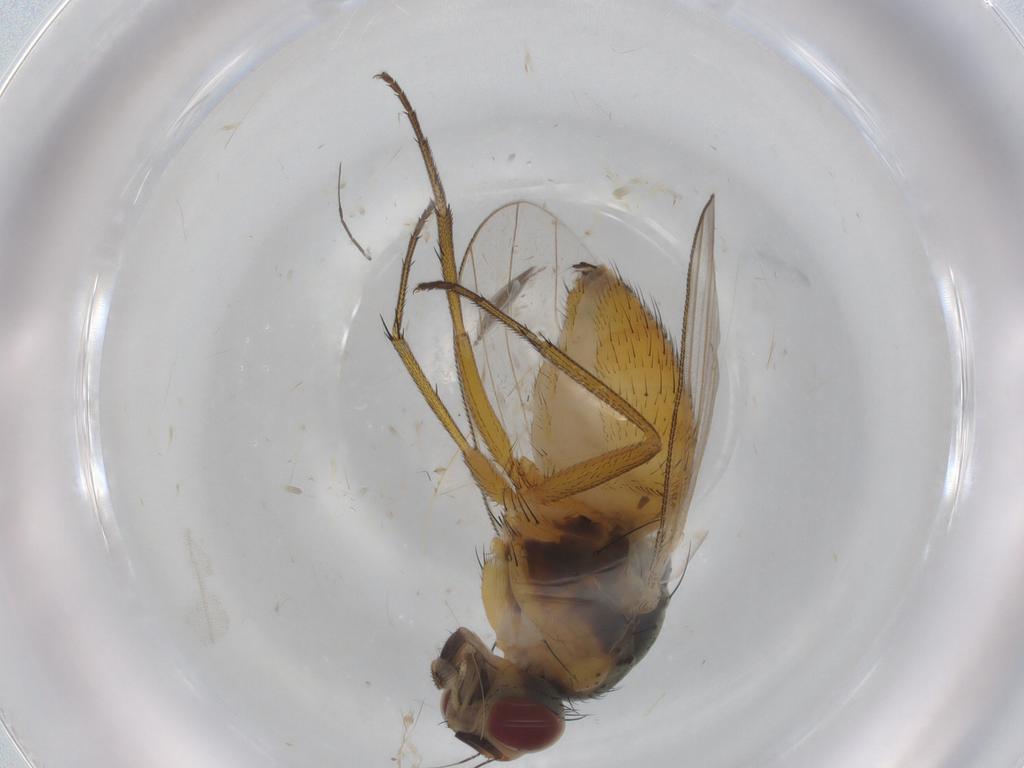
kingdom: Animalia
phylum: Arthropoda
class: Insecta
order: Diptera
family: Muscidae
